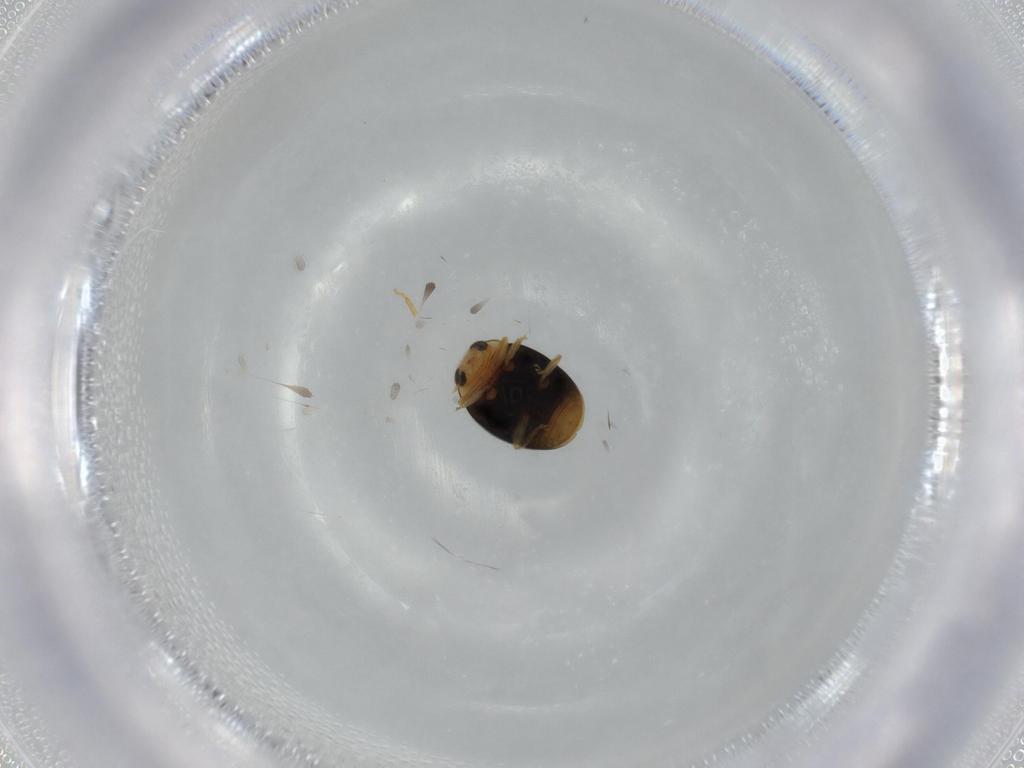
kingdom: Animalia
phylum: Arthropoda
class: Insecta
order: Coleoptera
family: Coccinellidae
